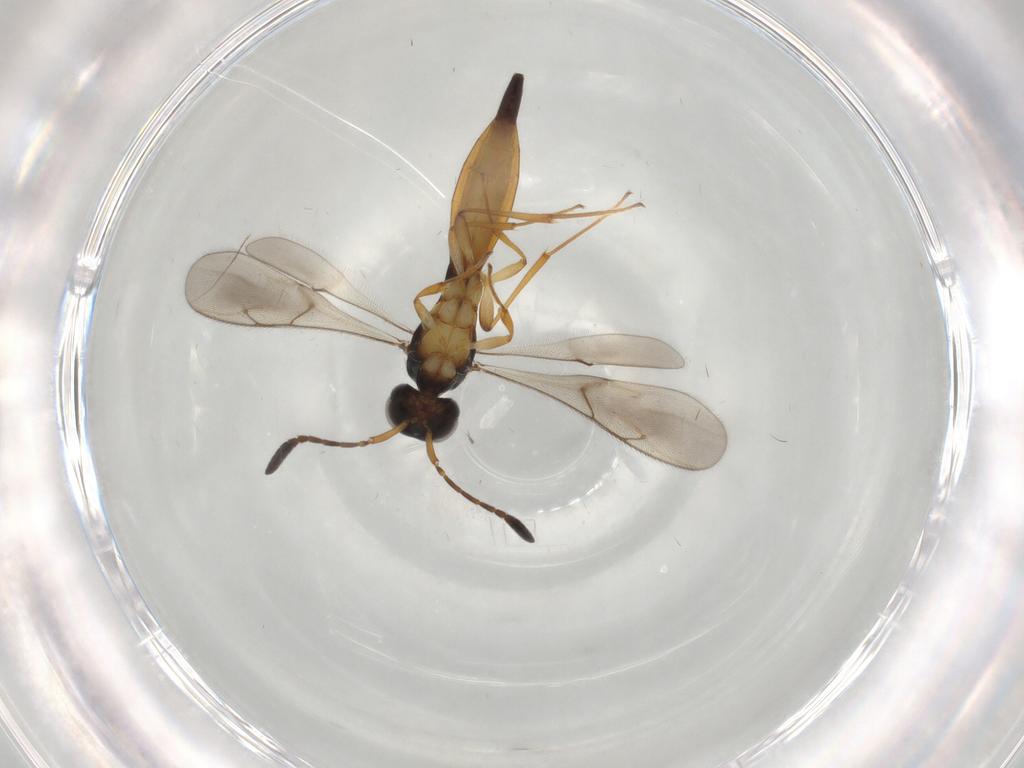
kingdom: Animalia
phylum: Arthropoda
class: Insecta
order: Hymenoptera
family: Scelionidae
